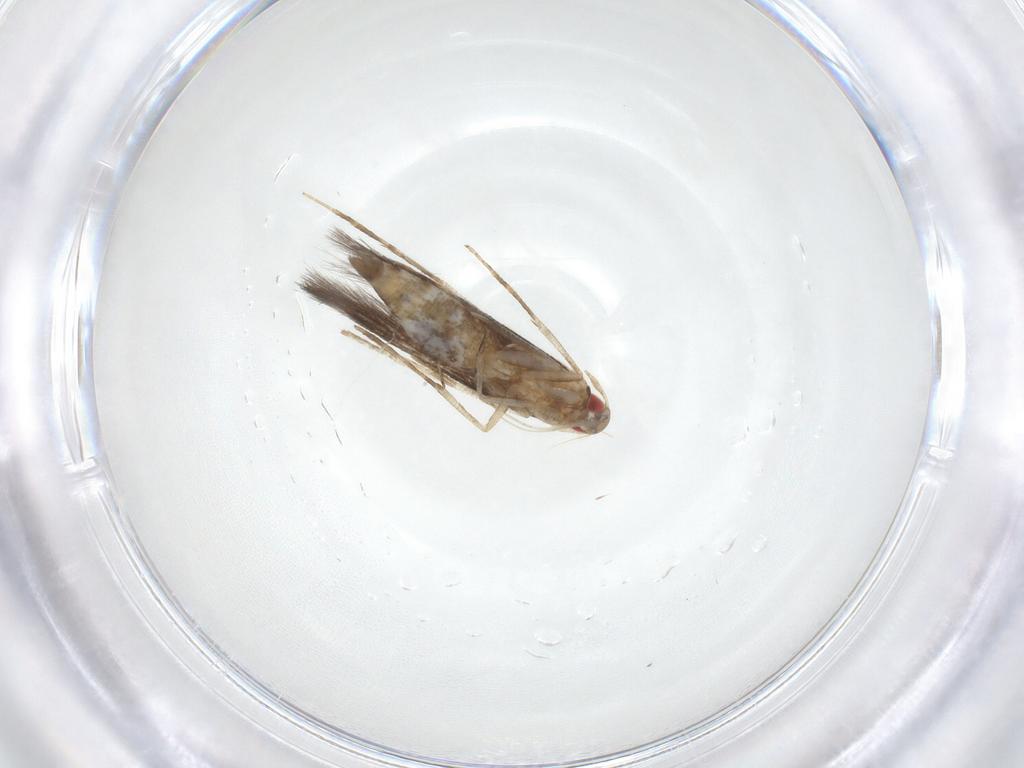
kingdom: Animalia
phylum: Arthropoda
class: Insecta
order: Lepidoptera
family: Cosmopterigidae
